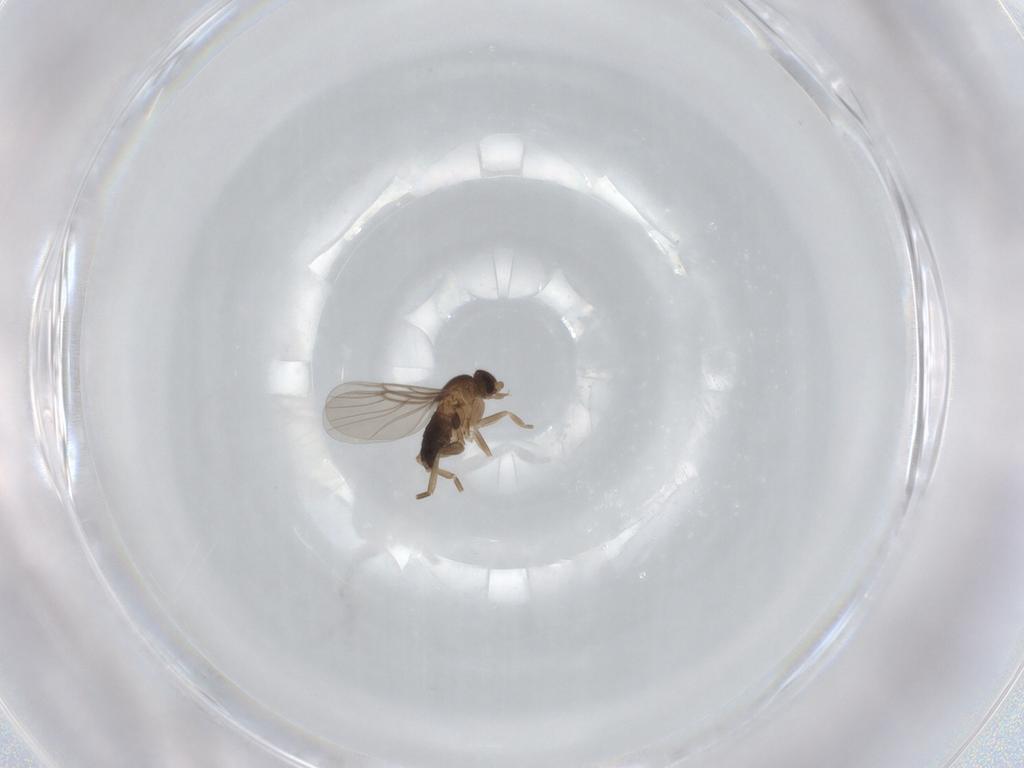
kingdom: Animalia
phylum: Arthropoda
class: Insecta
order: Diptera
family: Phoridae
